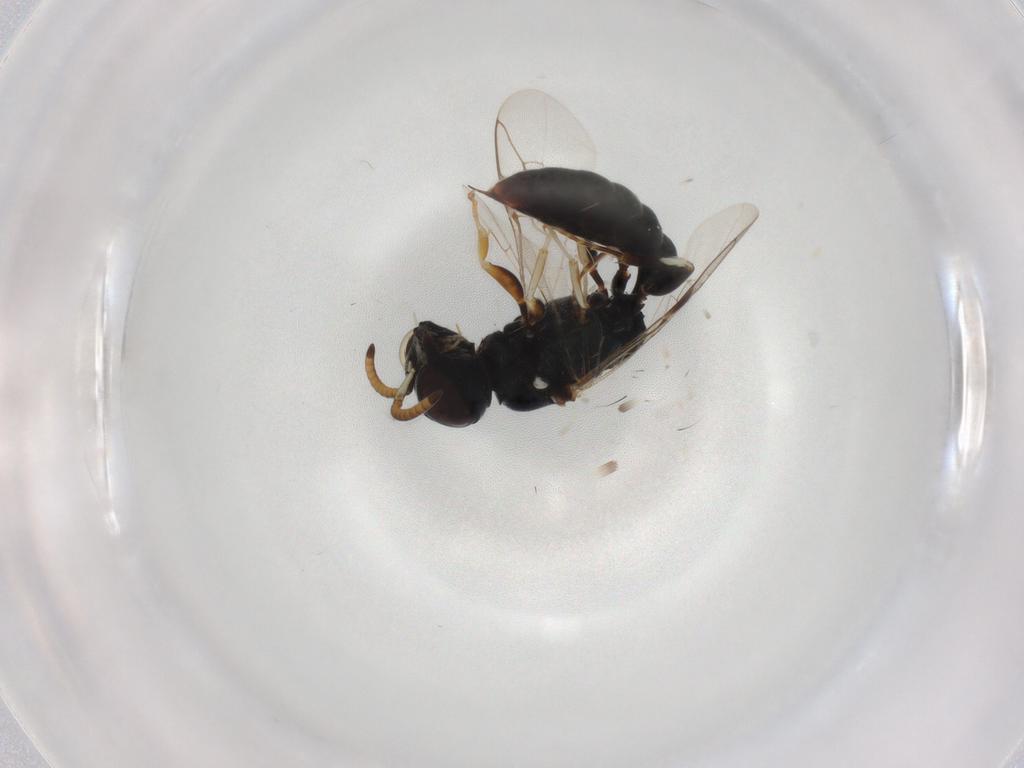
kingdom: Animalia
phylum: Arthropoda
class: Insecta
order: Hymenoptera
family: Pemphredonidae
